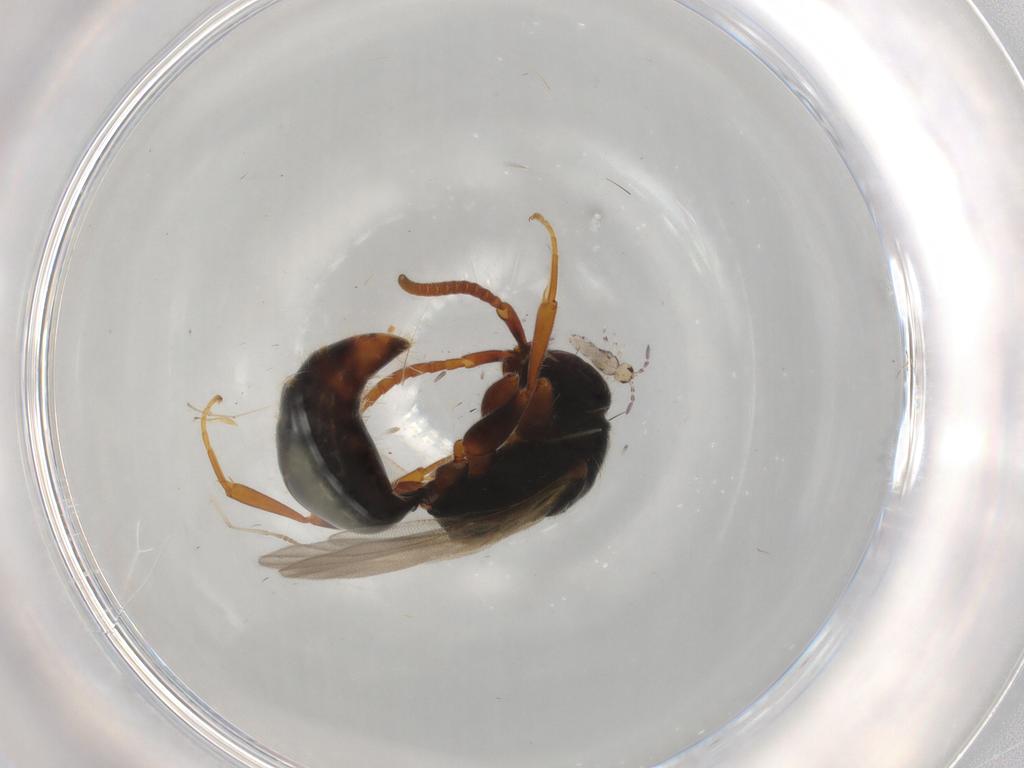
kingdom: Animalia
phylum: Arthropoda
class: Insecta
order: Hymenoptera
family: Bethylidae
